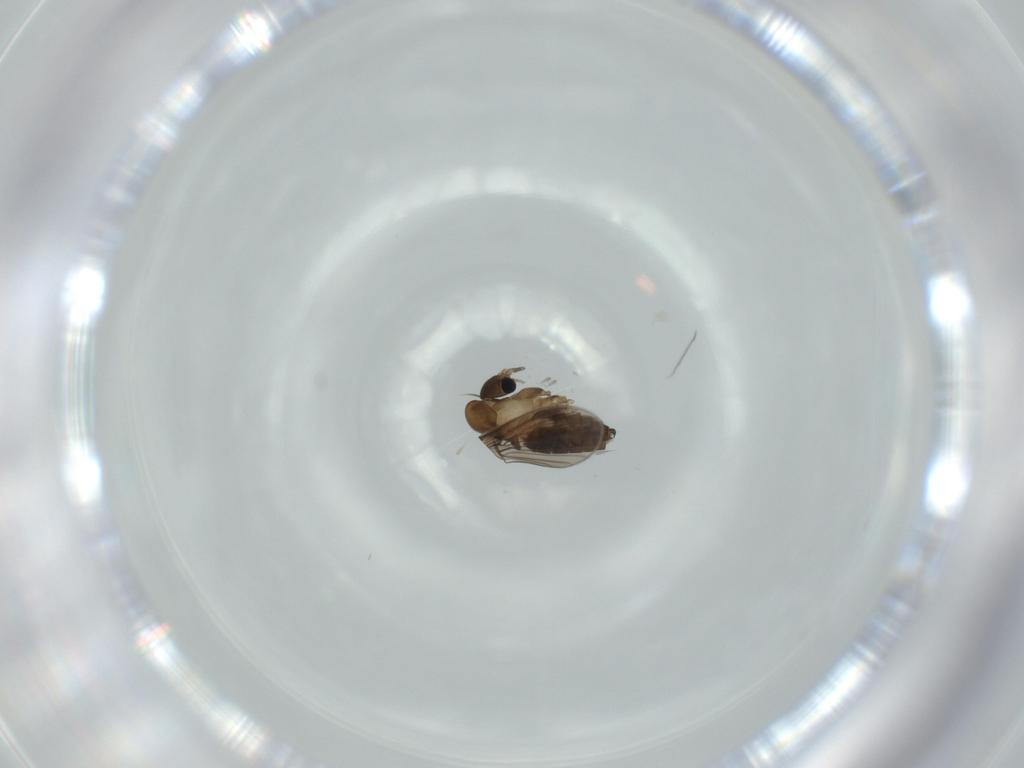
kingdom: Animalia
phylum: Arthropoda
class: Insecta
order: Diptera
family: Psychodidae
